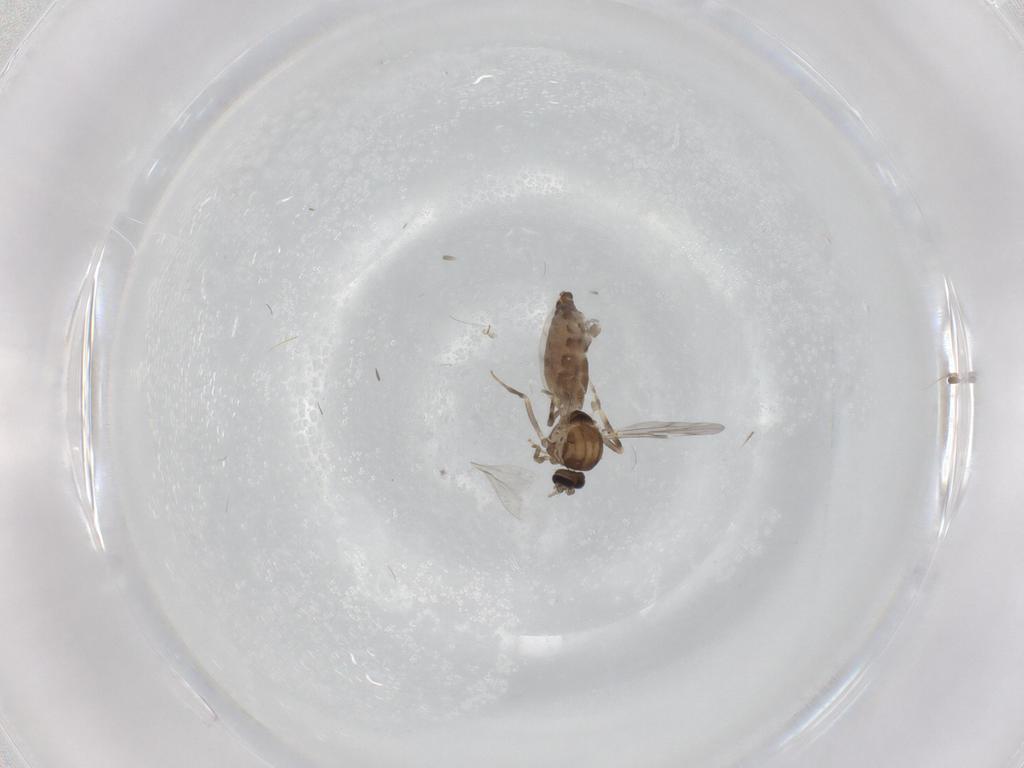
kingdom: Animalia
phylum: Arthropoda
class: Insecta
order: Diptera
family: Ceratopogonidae
